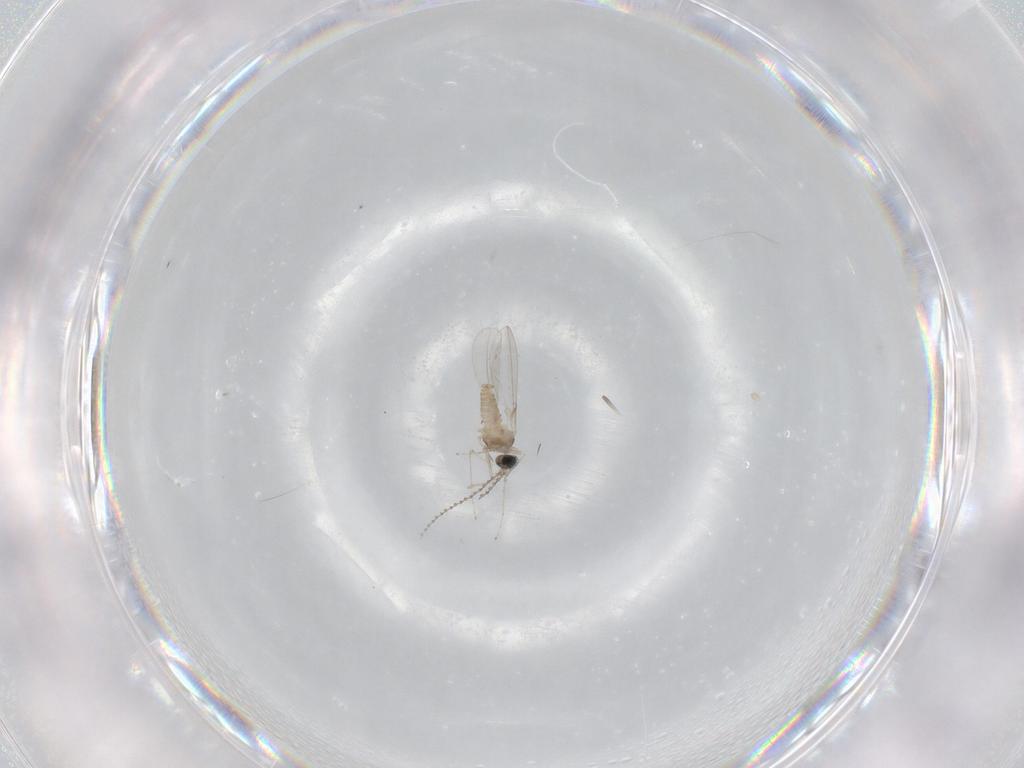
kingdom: Animalia
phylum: Arthropoda
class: Insecta
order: Diptera
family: Cecidomyiidae
